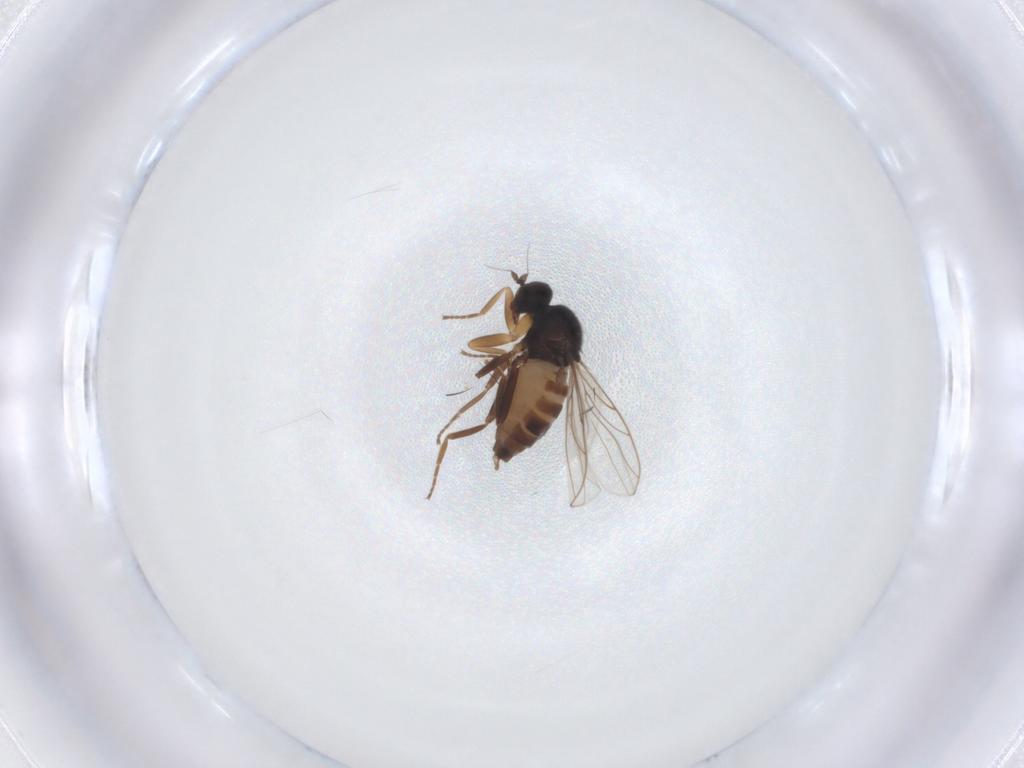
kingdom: Animalia
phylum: Arthropoda
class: Insecta
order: Diptera
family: Hybotidae
